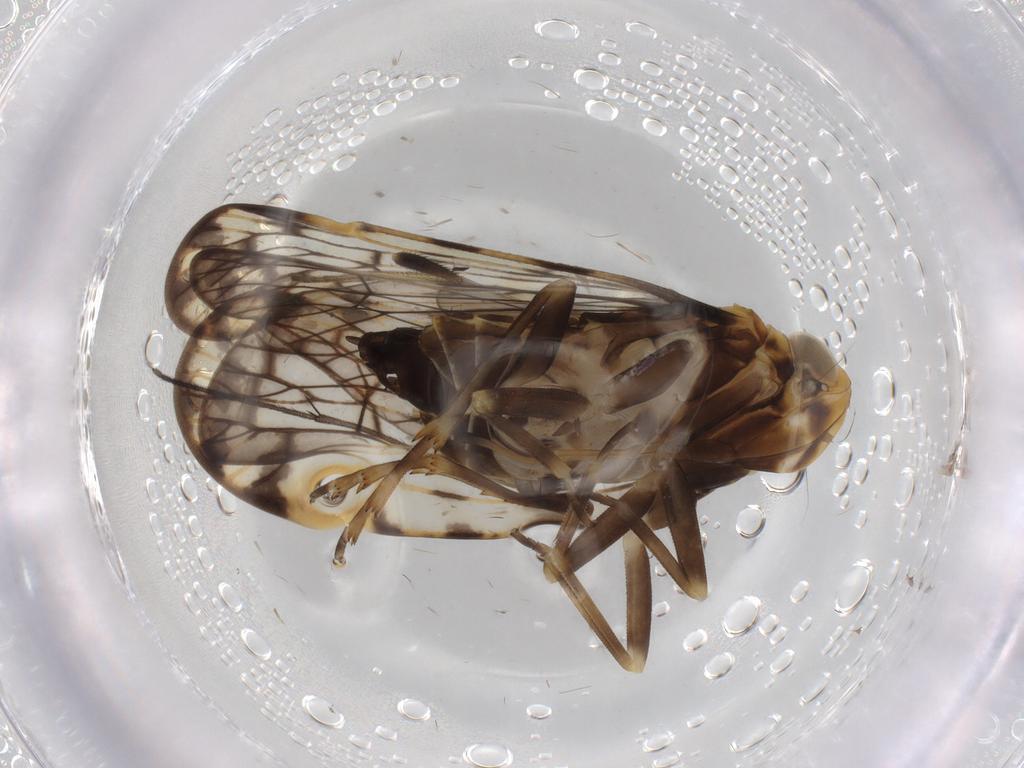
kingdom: Animalia
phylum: Arthropoda
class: Insecta
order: Hemiptera
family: Cixiidae
